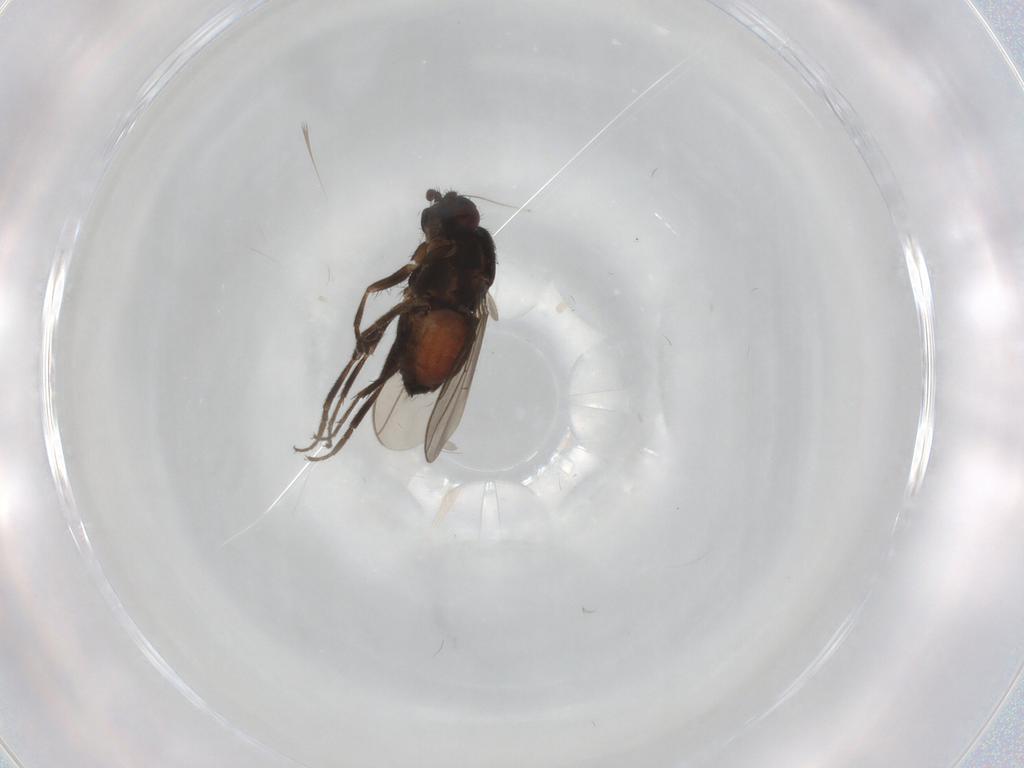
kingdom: Animalia
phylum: Arthropoda
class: Insecta
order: Diptera
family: Sphaeroceridae
